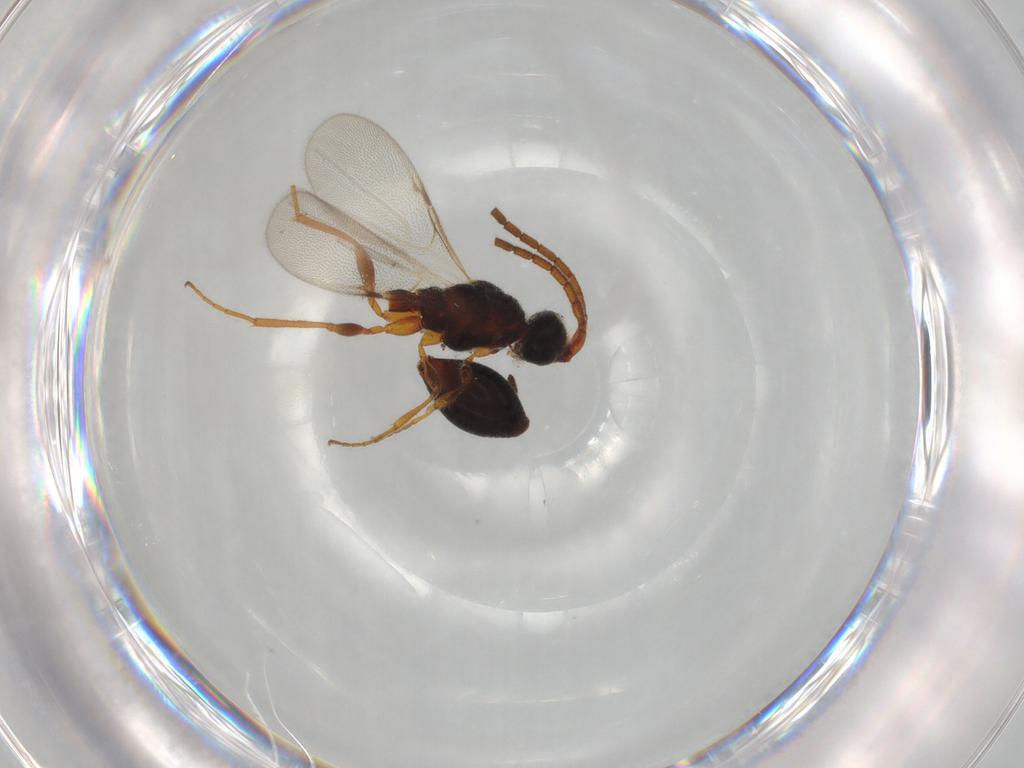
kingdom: Animalia
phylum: Arthropoda
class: Insecta
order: Hymenoptera
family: Diapriidae
